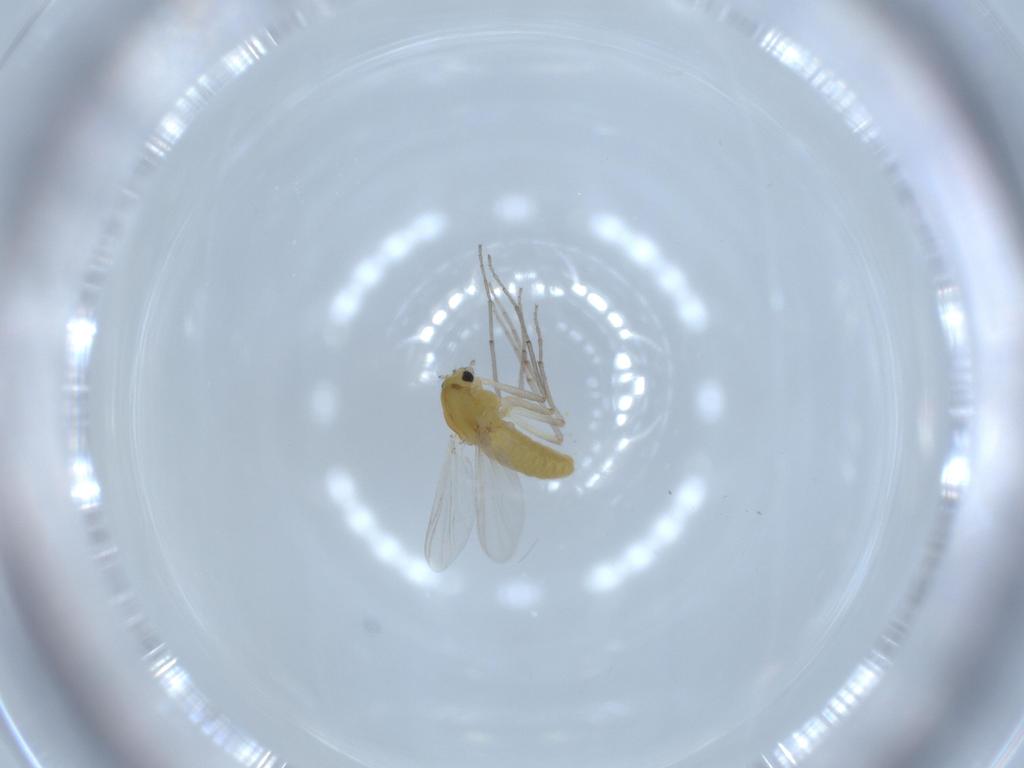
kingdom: Animalia
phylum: Arthropoda
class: Insecta
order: Diptera
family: Chironomidae
